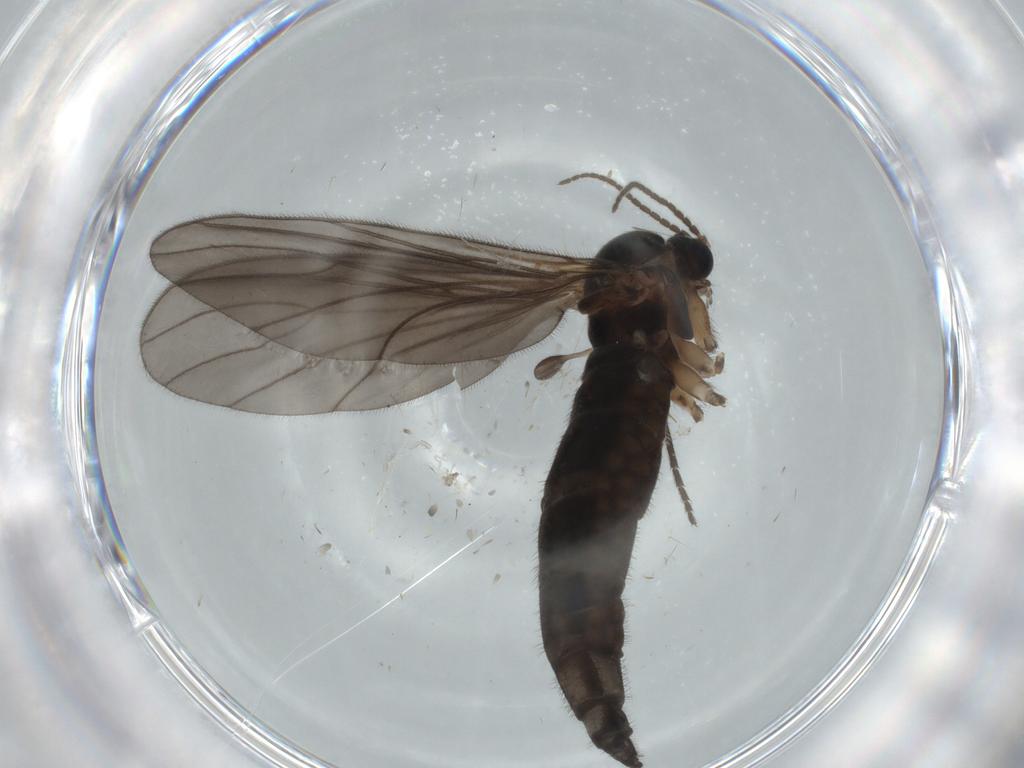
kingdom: Animalia
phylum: Arthropoda
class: Insecta
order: Diptera
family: Sciaridae
